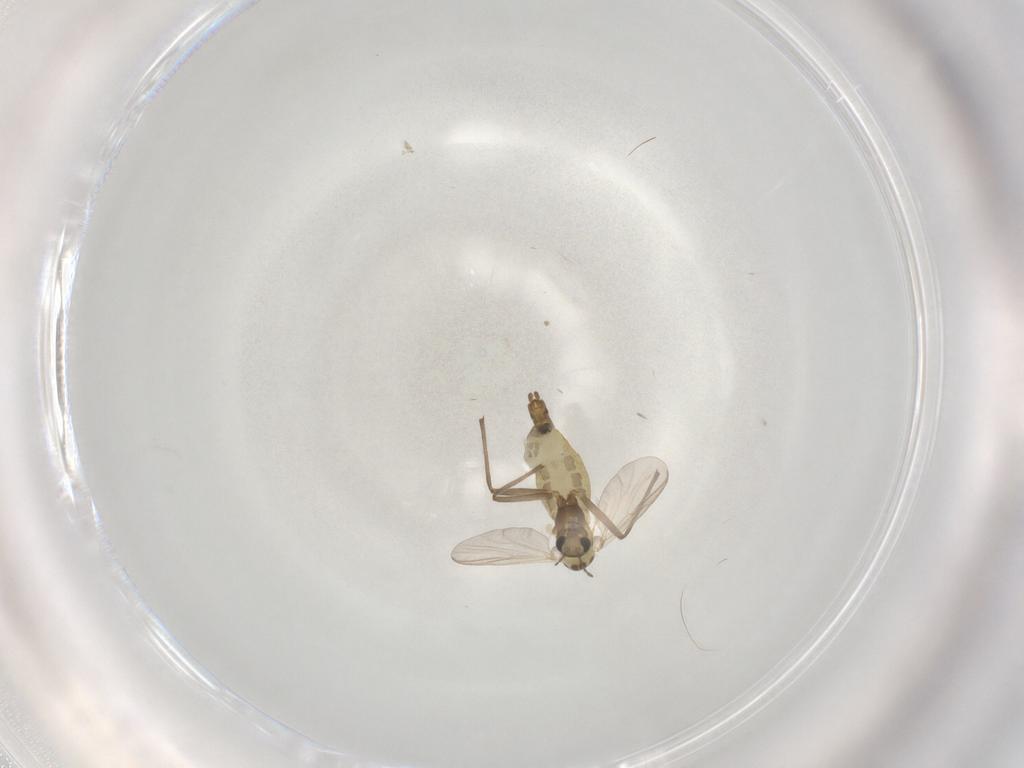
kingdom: Animalia
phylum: Arthropoda
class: Insecta
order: Diptera
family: Chironomidae
